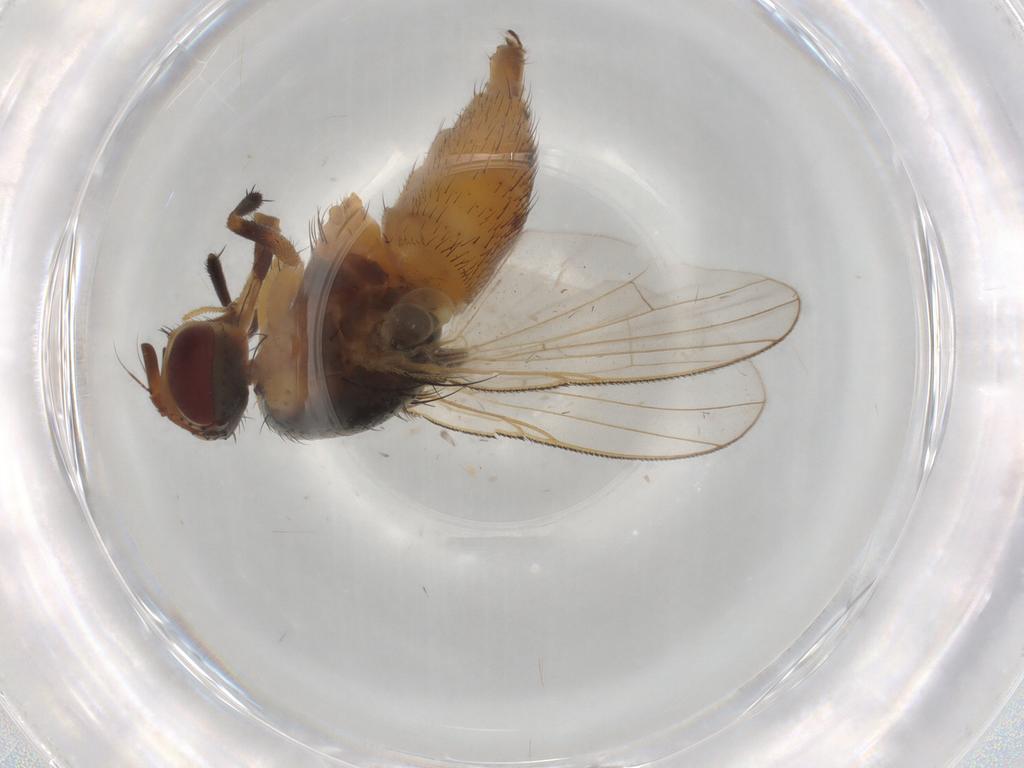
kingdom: Animalia
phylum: Arthropoda
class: Insecta
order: Diptera
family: Muscidae
